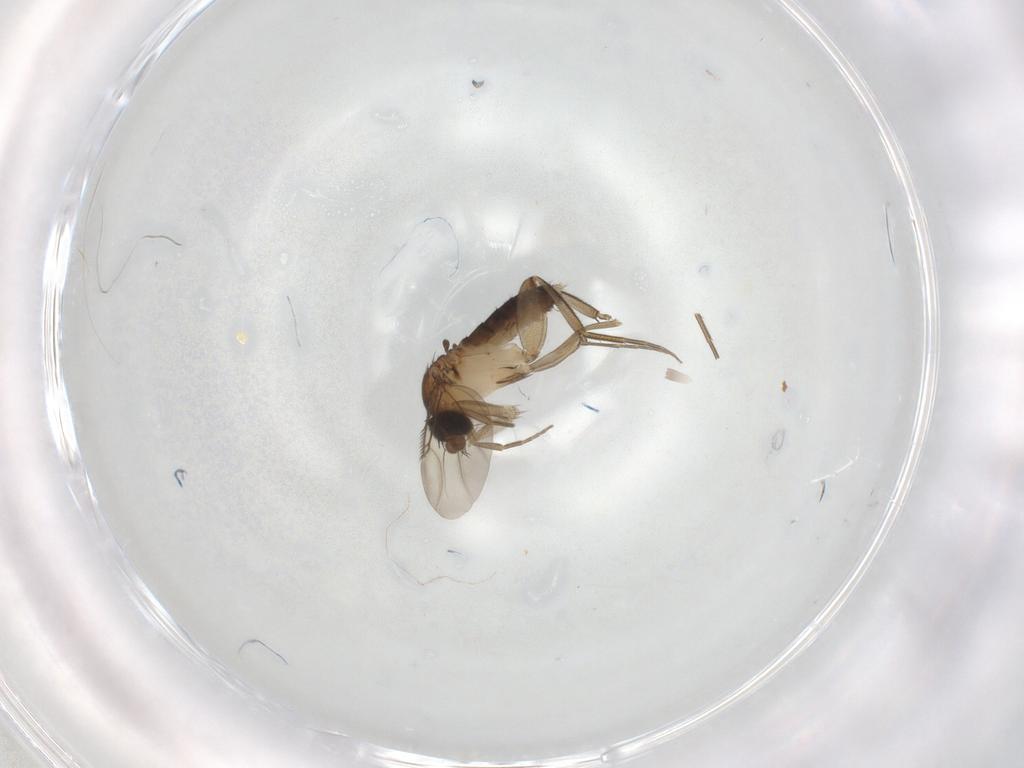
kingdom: Animalia
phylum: Arthropoda
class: Insecta
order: Diptera
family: Phoridae
